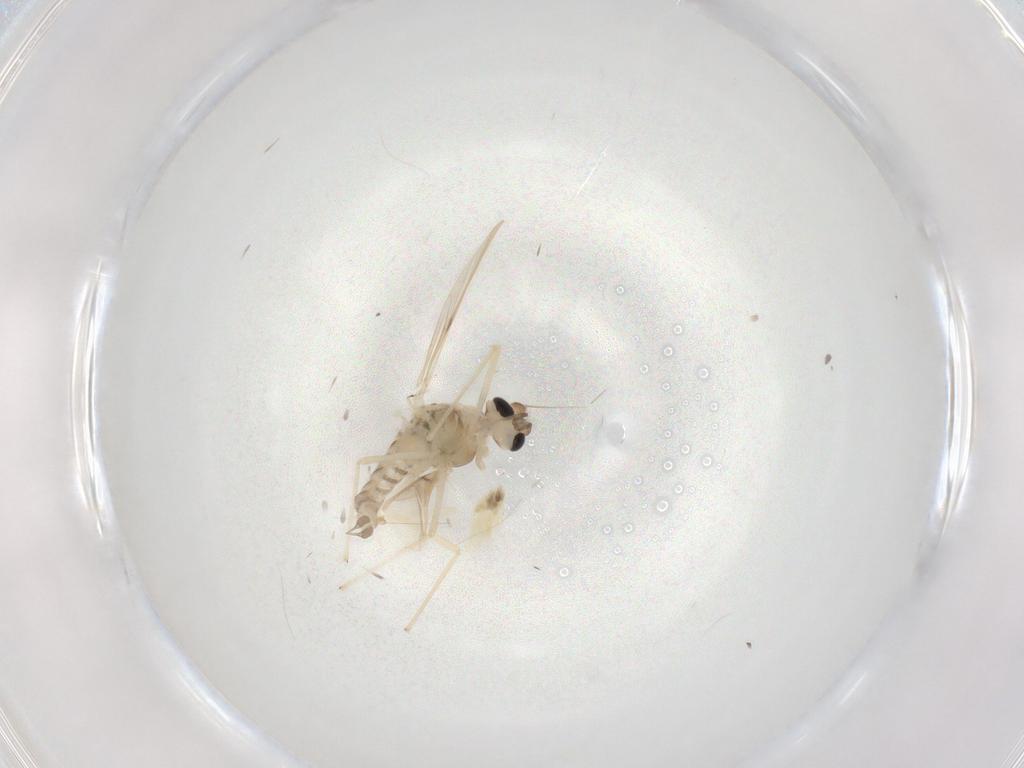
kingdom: Animalia
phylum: Arthropoda
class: Insecta
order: Diptera
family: Chironomidae
